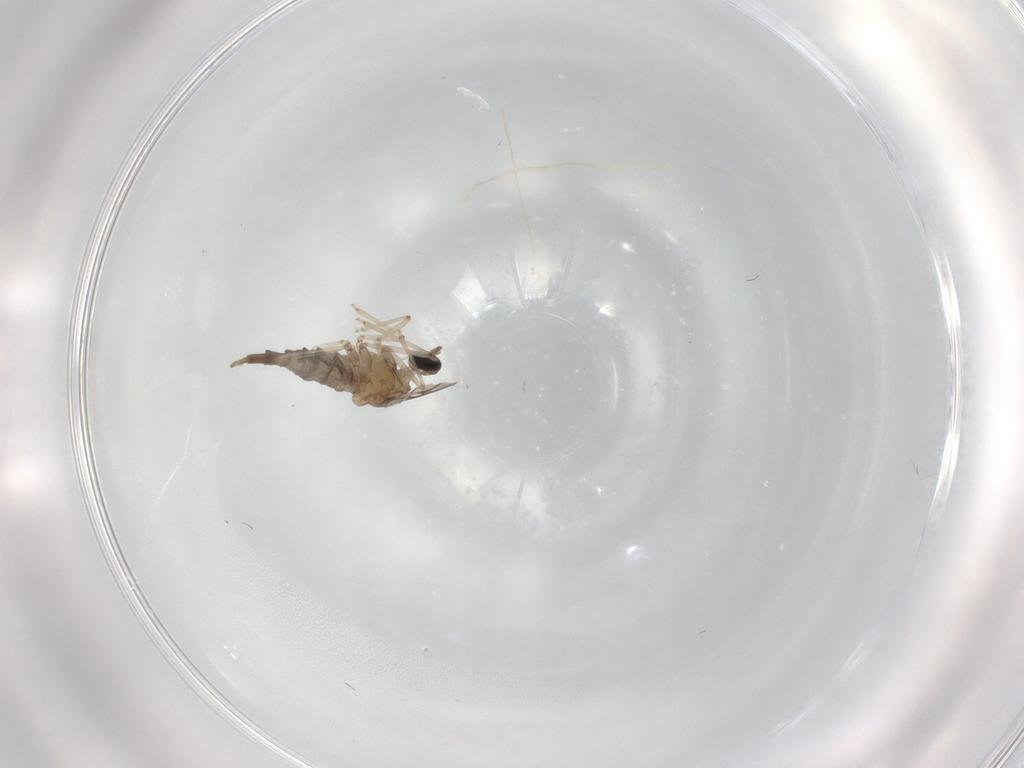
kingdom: Animalia
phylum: Arthropoda
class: Insecta
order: Diptera
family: Cecidomyiidae
